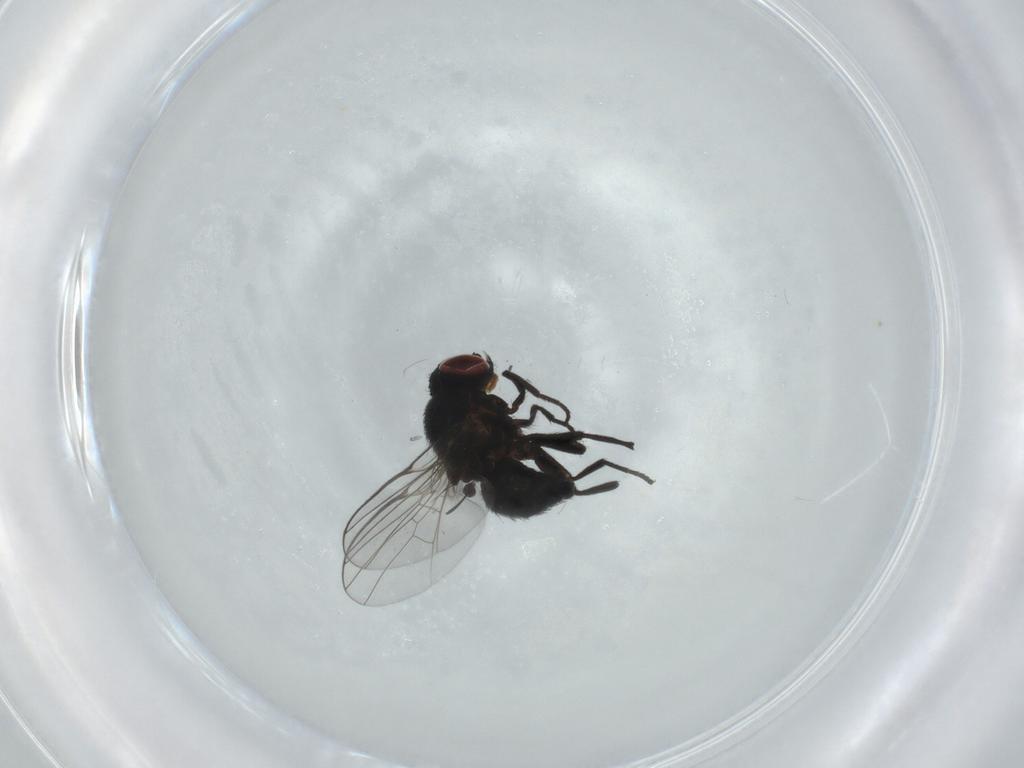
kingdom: Animalia
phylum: Arthropoda
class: Insecta
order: Diptera
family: Agromyzidae
